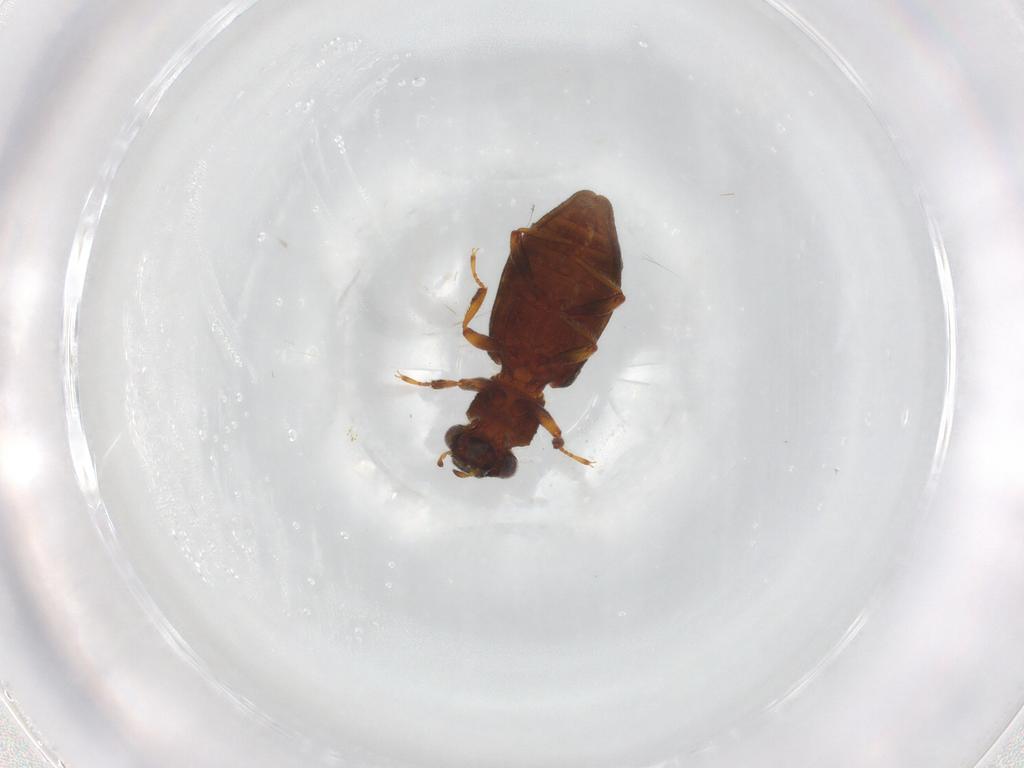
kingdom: Animalia
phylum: Arthropoda
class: Insecta
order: Coleoptera
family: Hydrophilidae
